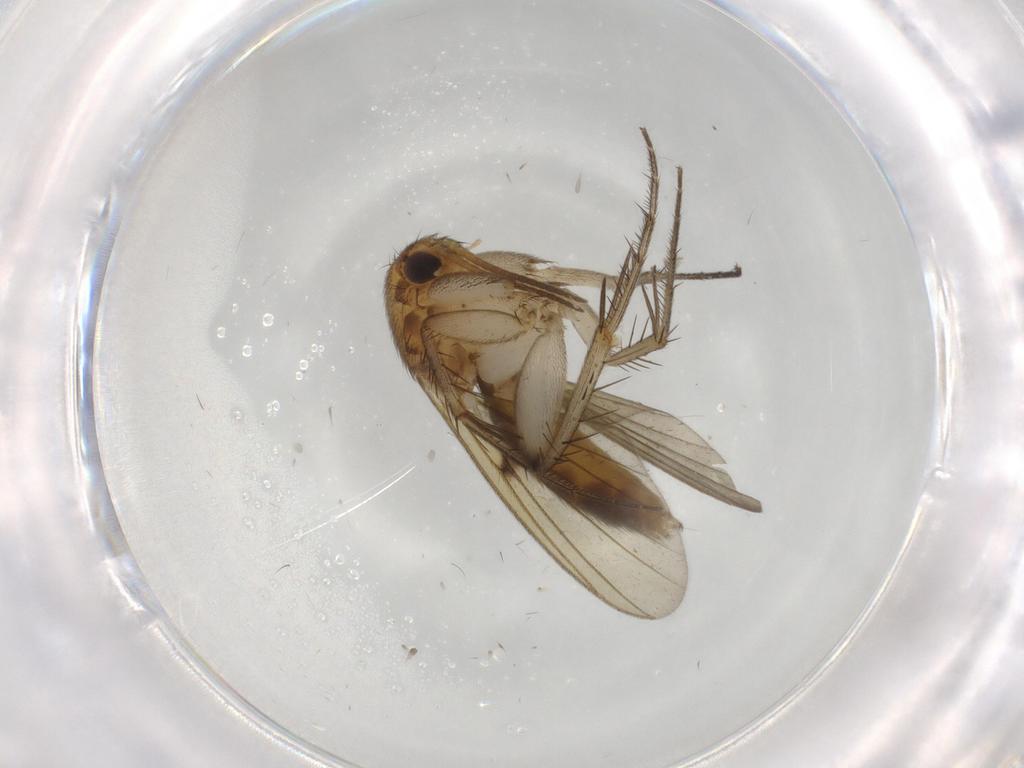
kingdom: Animalia
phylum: Arthropoda
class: Insecta
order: Diptera
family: Mycetophilidae
